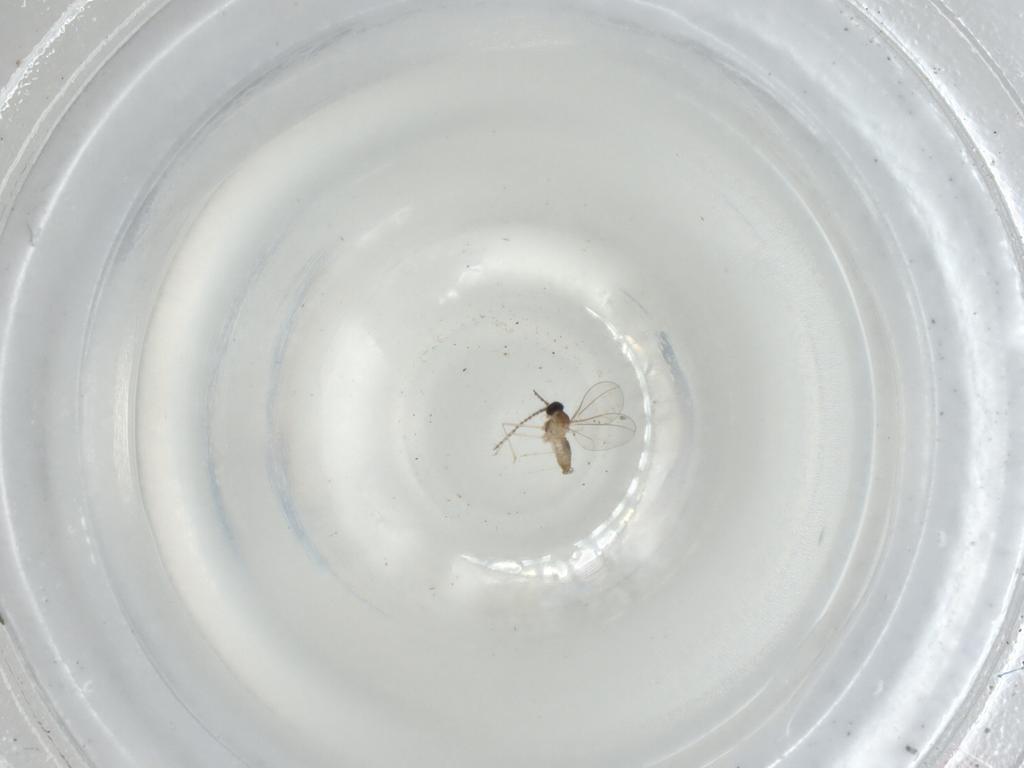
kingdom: Animalia
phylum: Arthropoda
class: Insecta
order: Diptera
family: Cecidomyiidae
